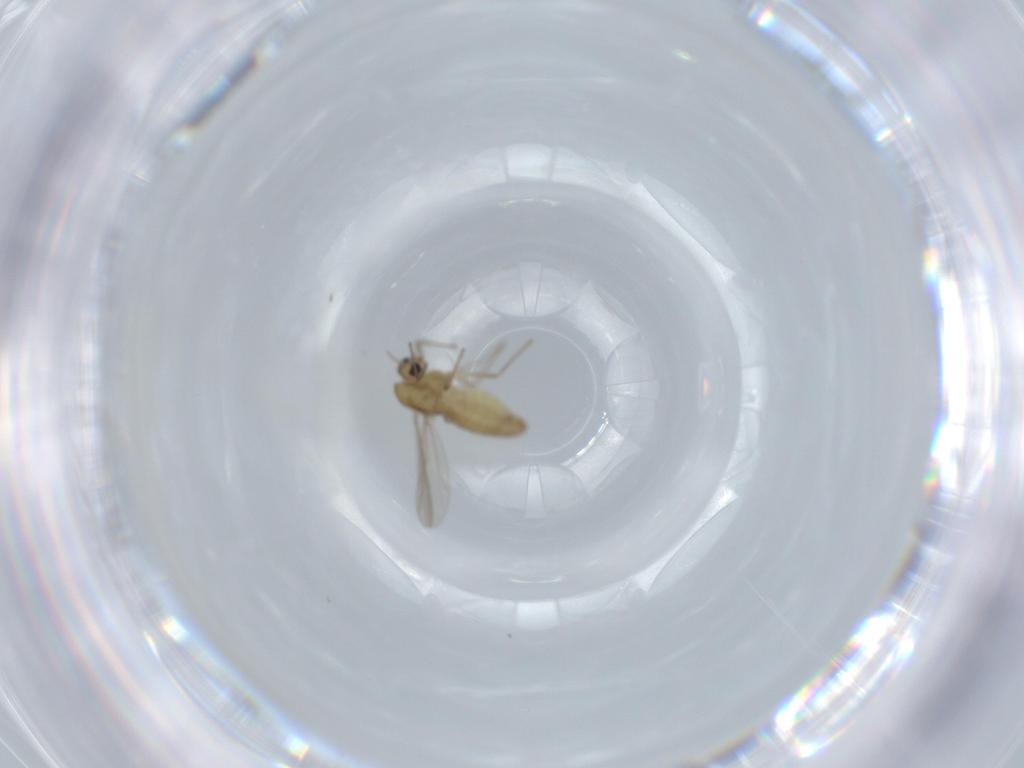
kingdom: Animalia
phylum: Arthropoda
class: Insecta
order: Diptera
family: Chironomidae
